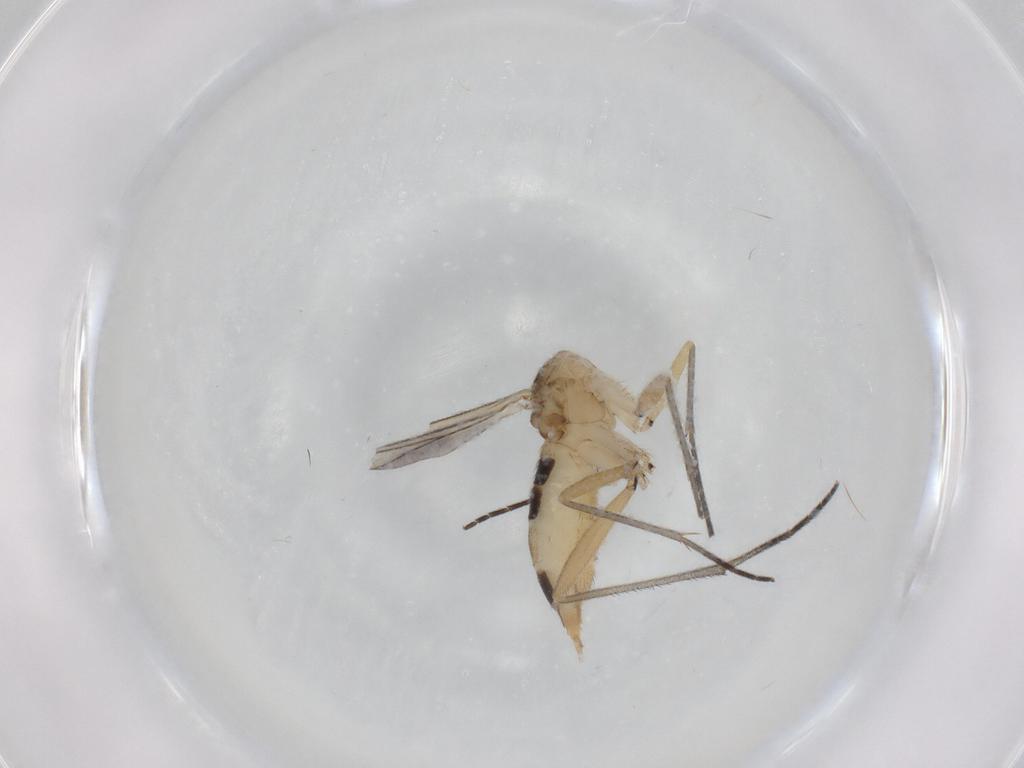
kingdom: Animalia
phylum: Arthropoda
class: Insecta
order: Diptera
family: Sciaridae
